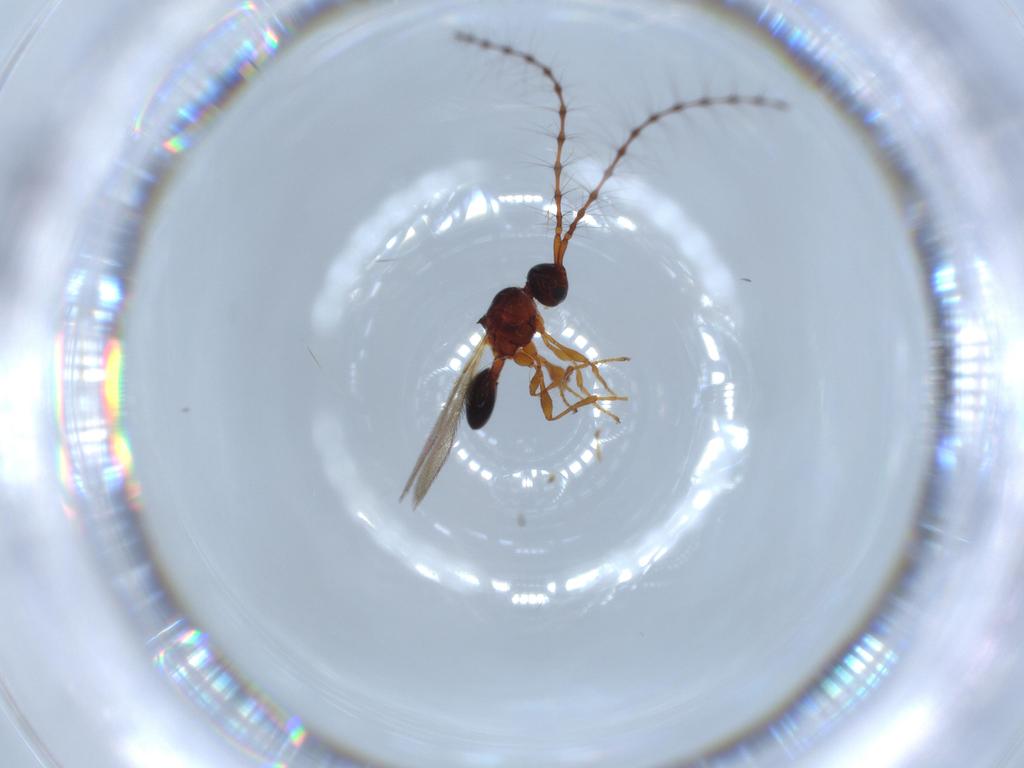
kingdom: Animalia
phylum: Arthropoda
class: Insecta
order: Hymenoptera
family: Diapriidae
